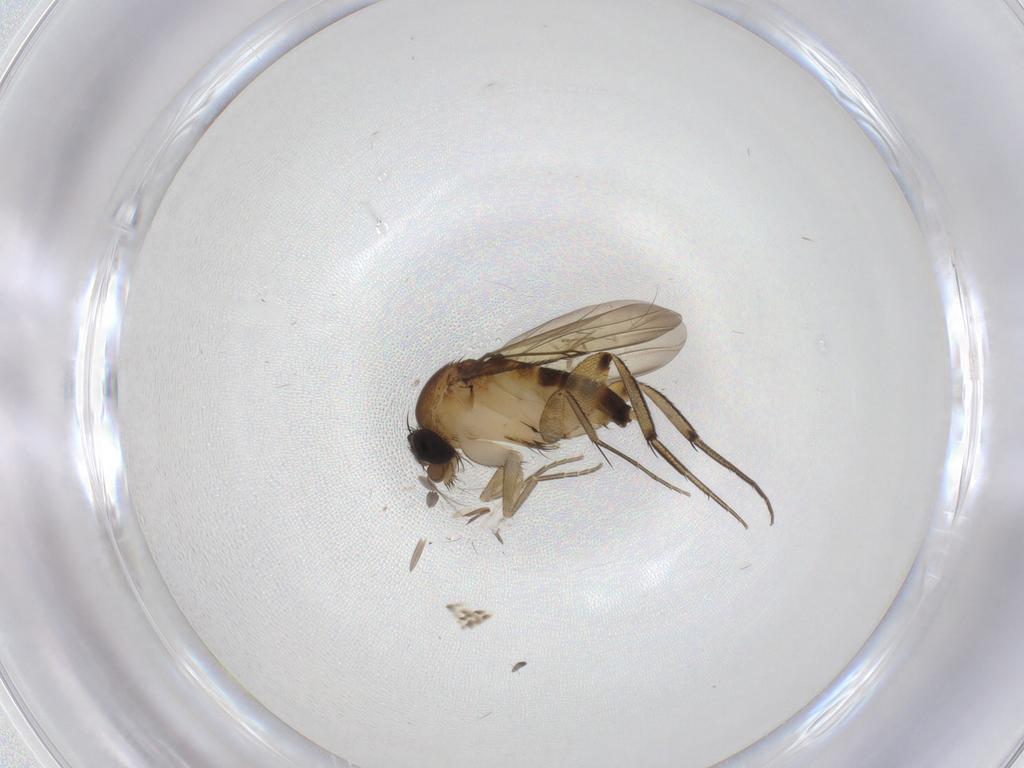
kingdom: Animalia
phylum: Arthropoda
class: Insecta
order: Diptera
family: Phoridae
